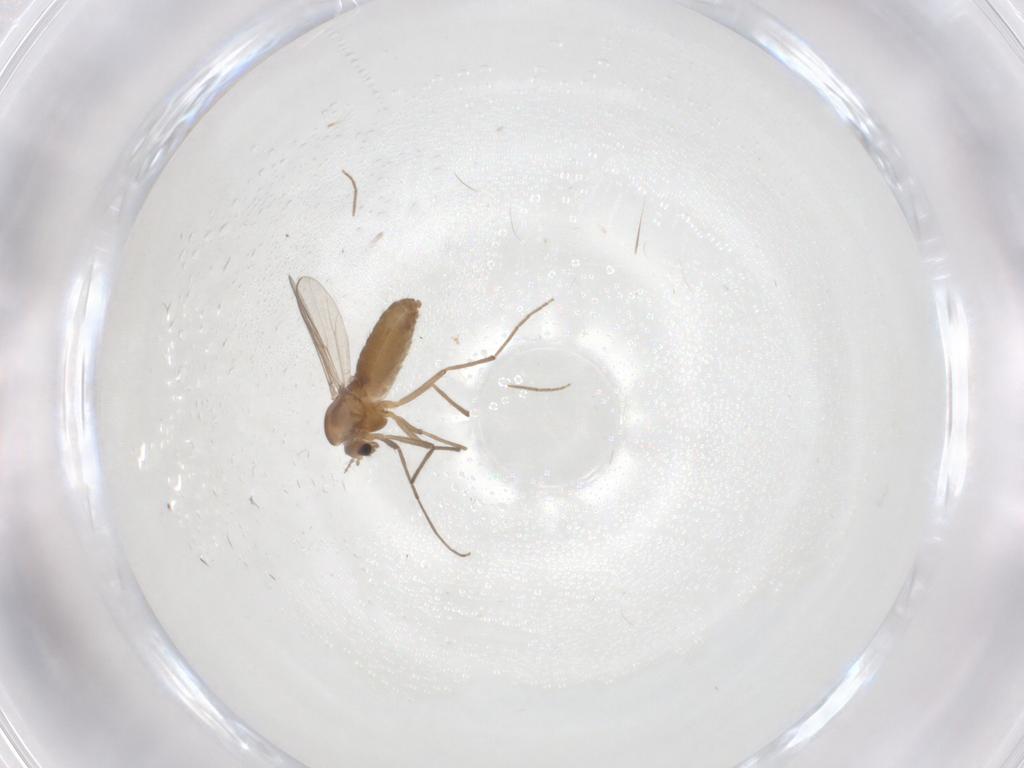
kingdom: Animalia
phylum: Arthropoda
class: Insecta
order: Diptera
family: Chironomidae
